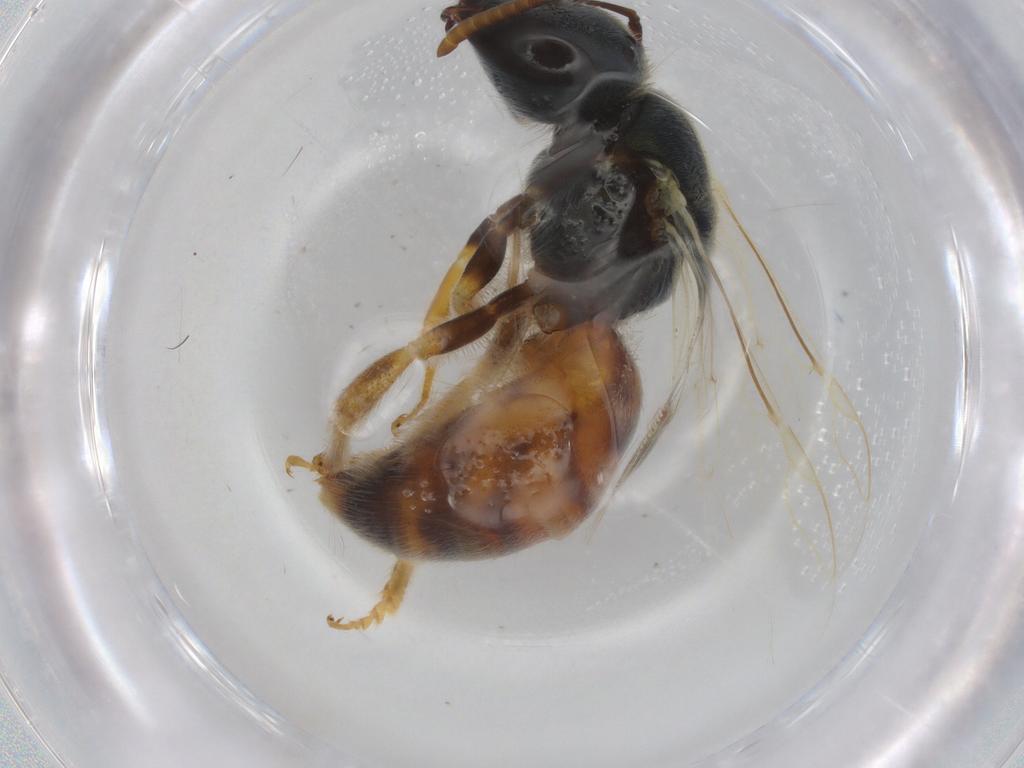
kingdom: Animalia
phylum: Arthropoda
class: Insecta
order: Hymenoptera
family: Halictidae
